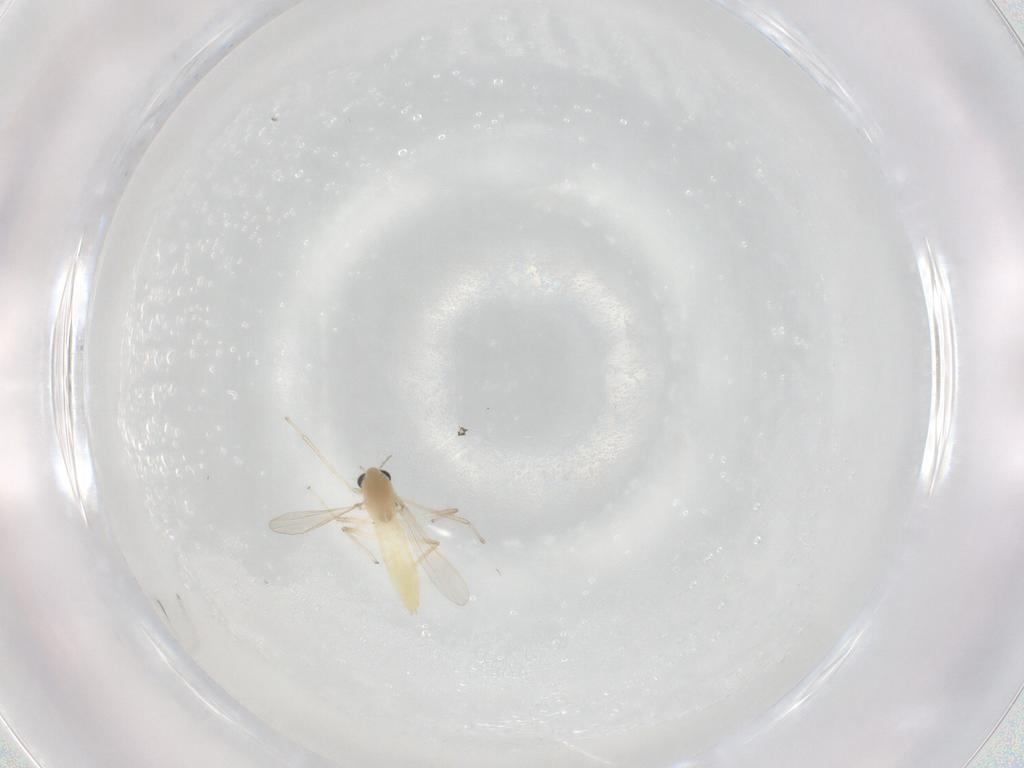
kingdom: Animalia
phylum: Arthropoda
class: Insecta
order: Diptera
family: Chironomidae
